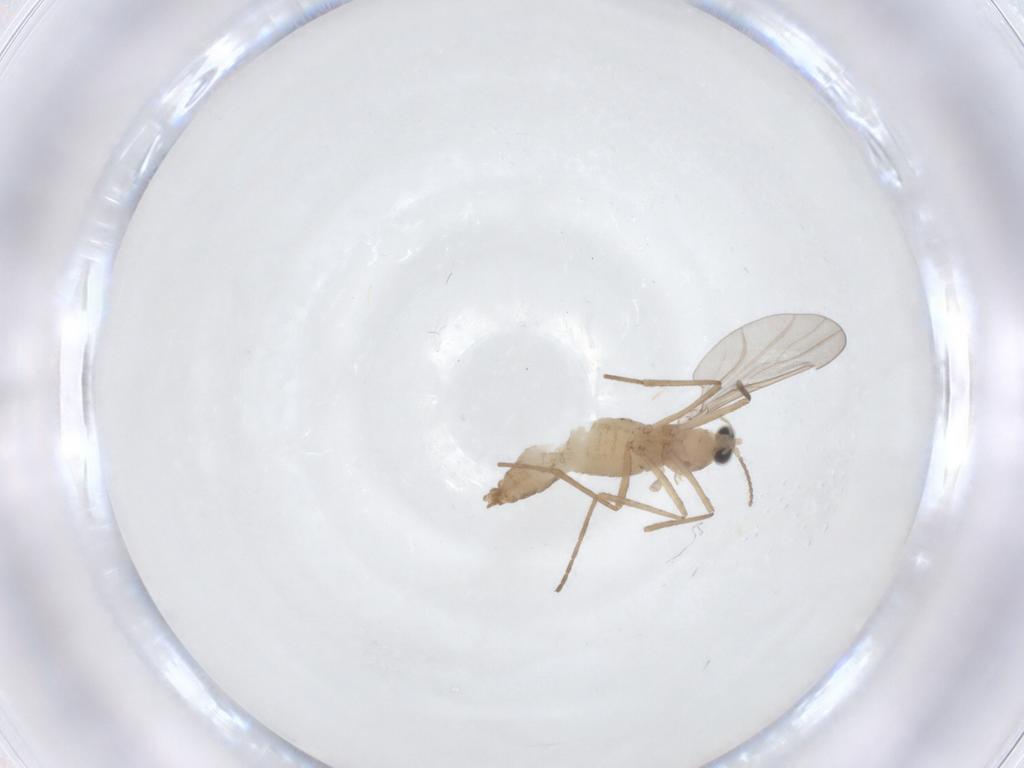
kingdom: Animalia
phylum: Arthropoda
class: Insecta
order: Diptera
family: Cecidomyiidae
